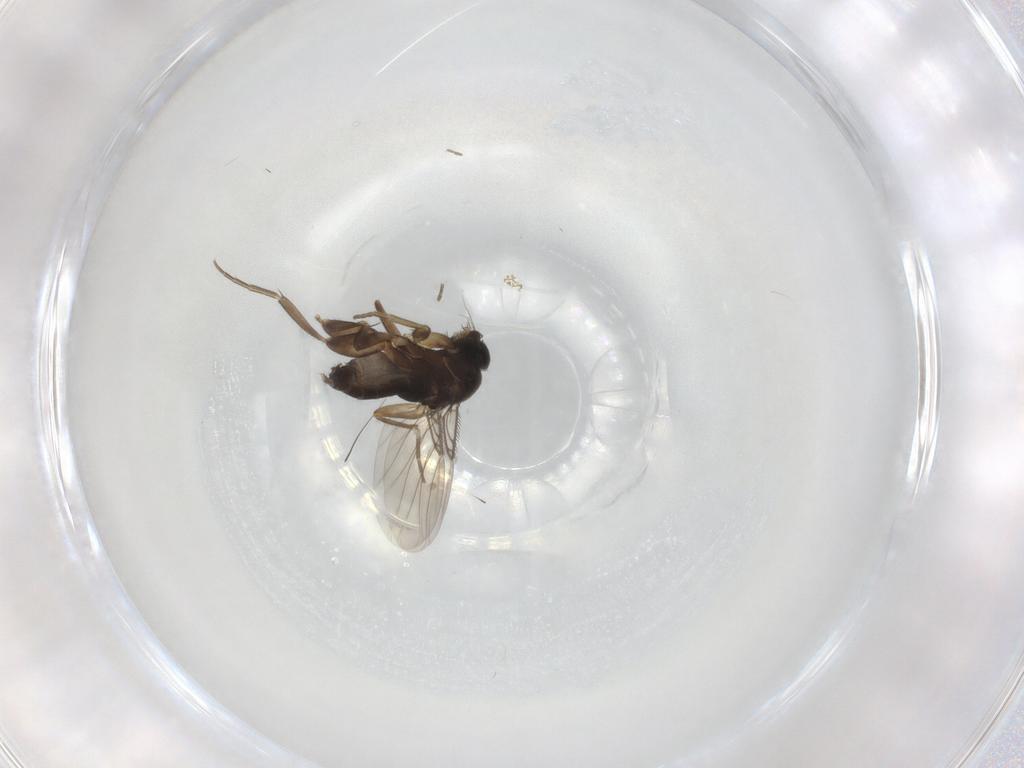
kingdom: Animalia
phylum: Arthropoda
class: Insecta
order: Diptera
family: Phoridae
